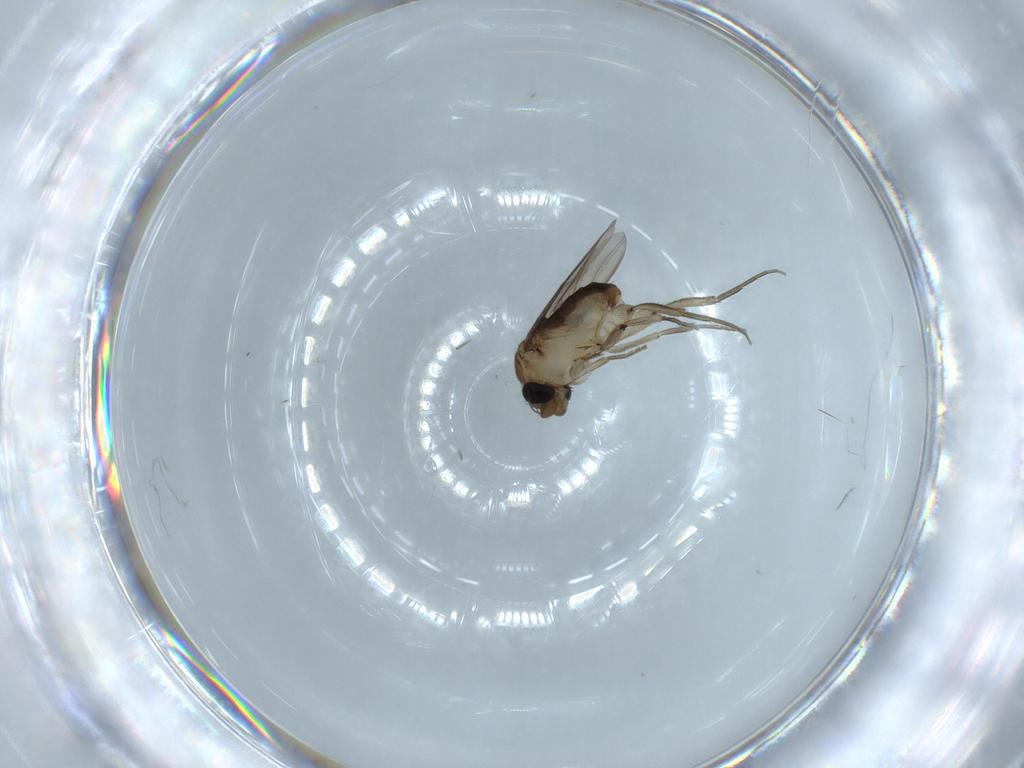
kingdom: Animalia
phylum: Arthropoda
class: Insecta
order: Diptera
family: Phoridae
